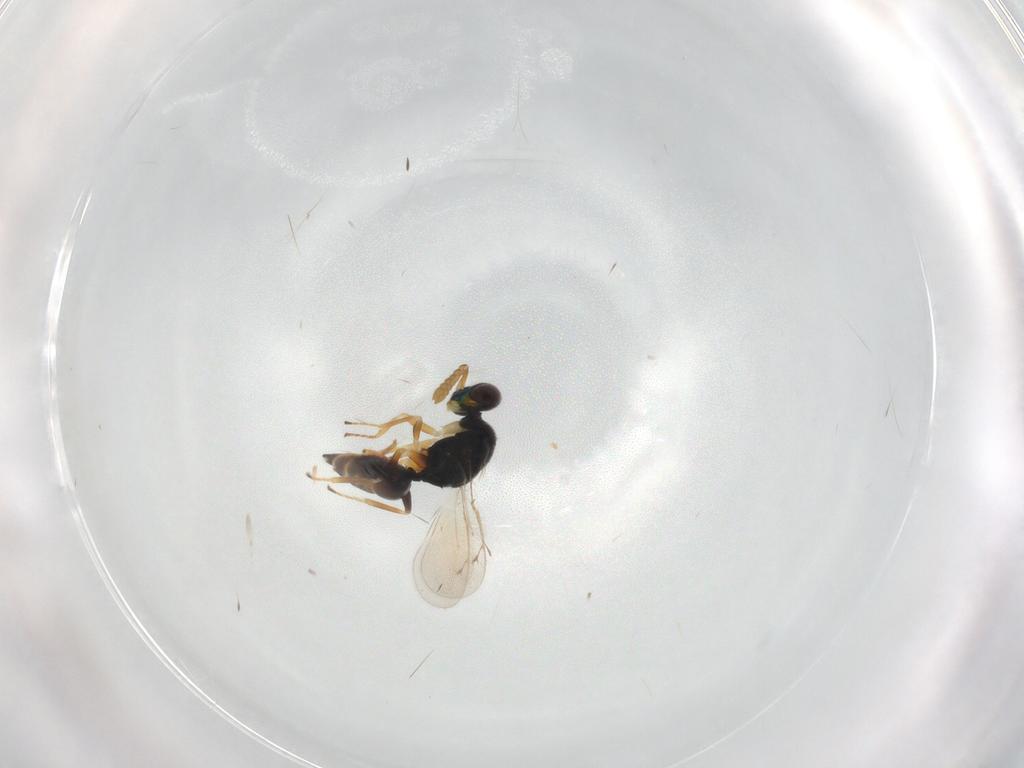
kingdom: Animalia
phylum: Arthropoda
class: Insecta
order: Hymenoptera
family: Eulophidae
